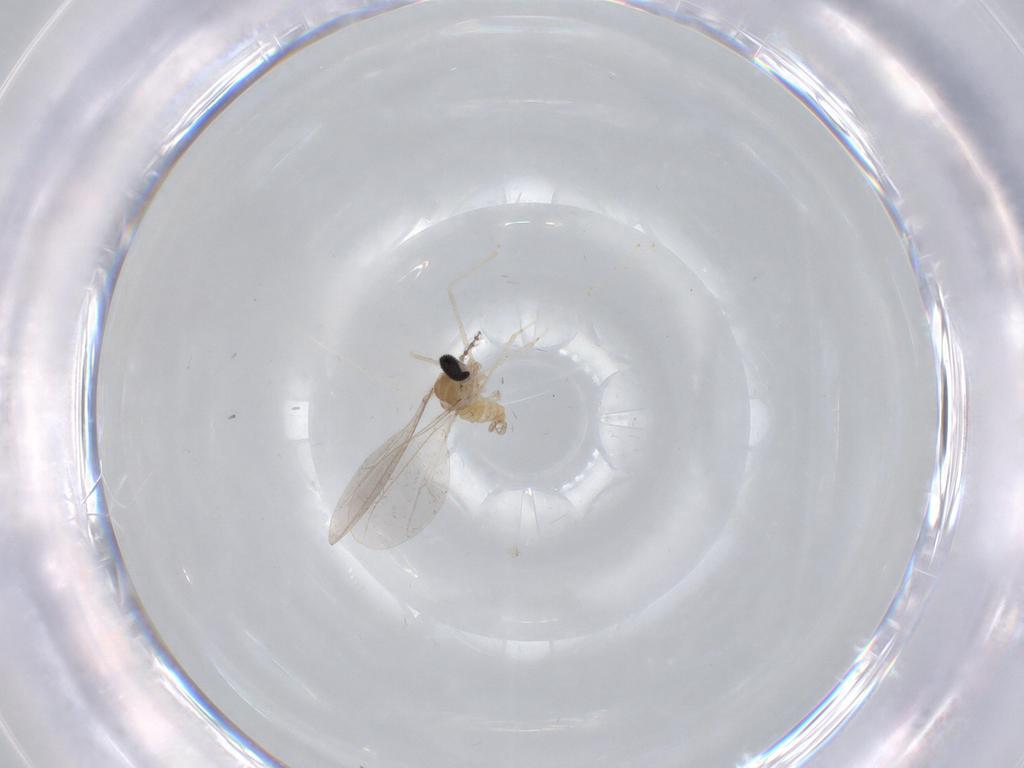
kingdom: Animalia
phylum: Arthropoda
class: Insecta
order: Diptera
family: Cecidomyiidae
